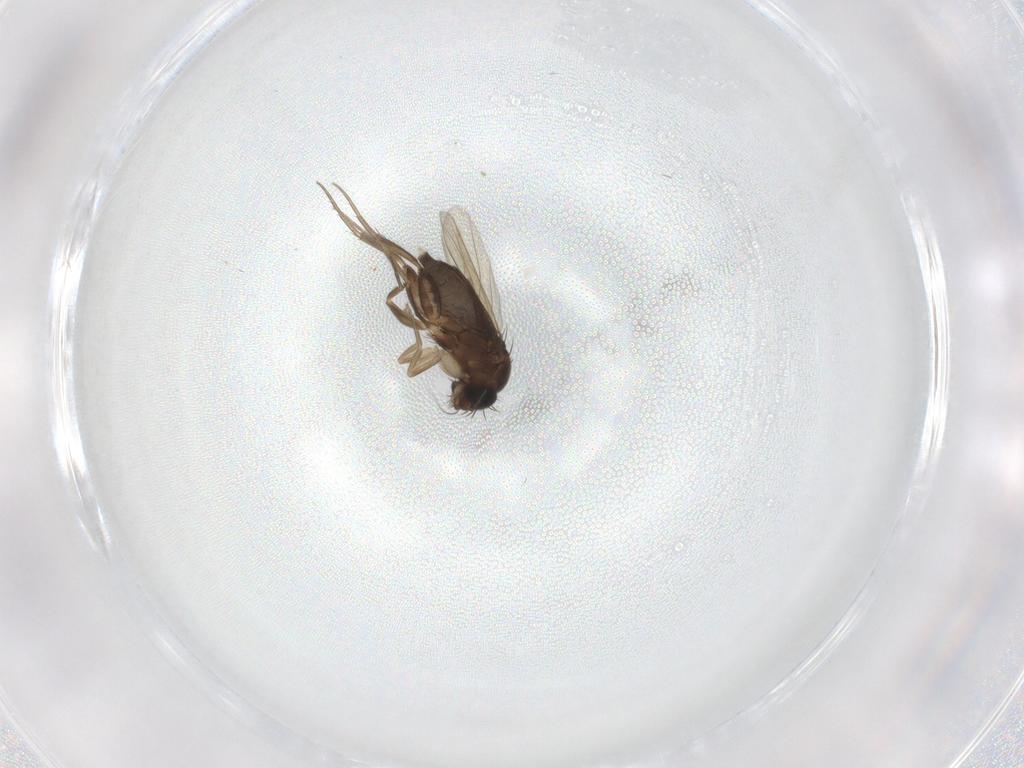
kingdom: Animalia
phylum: Arthropoda
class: Insecta
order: Diptera
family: Phoridae
